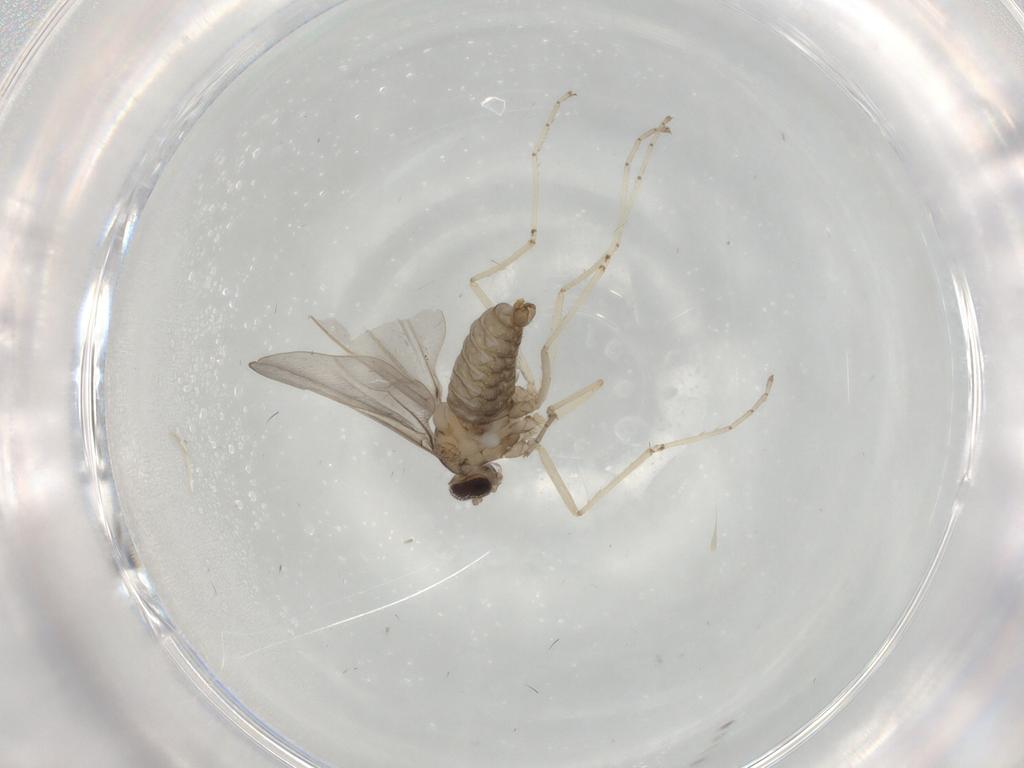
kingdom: Animalia
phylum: Arthropoda
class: Insecta
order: Diptera
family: Cecidomyiidae
